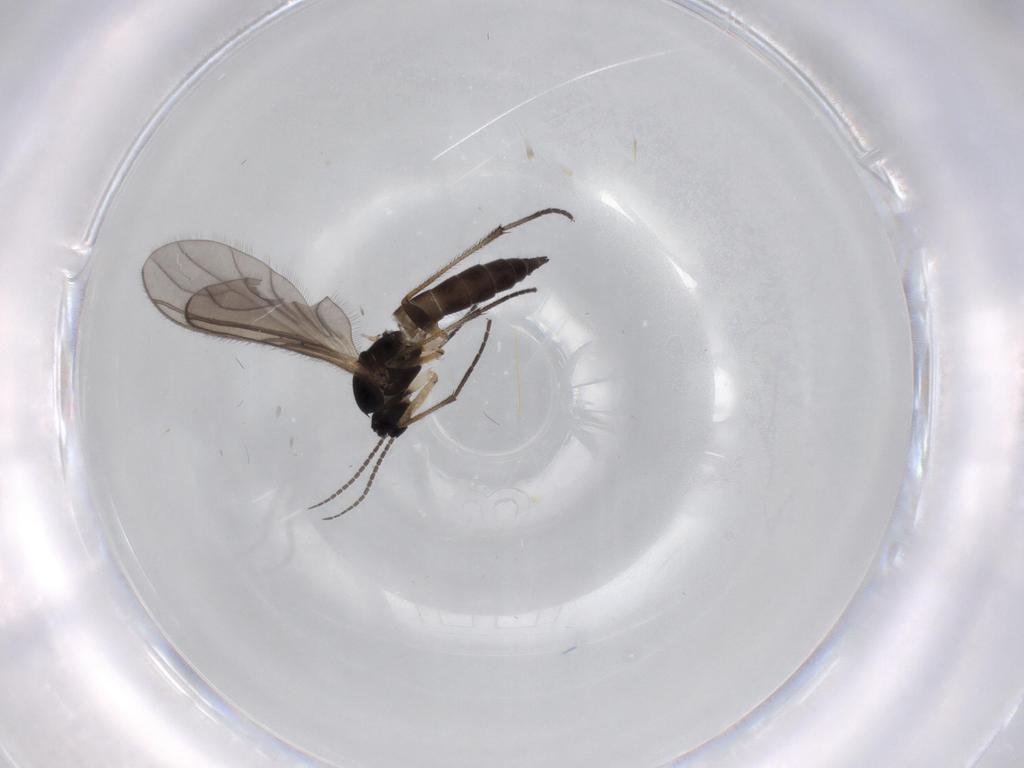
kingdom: Animalia
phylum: Arthropoda
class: Insecta
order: Diptera
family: Sciaridae
